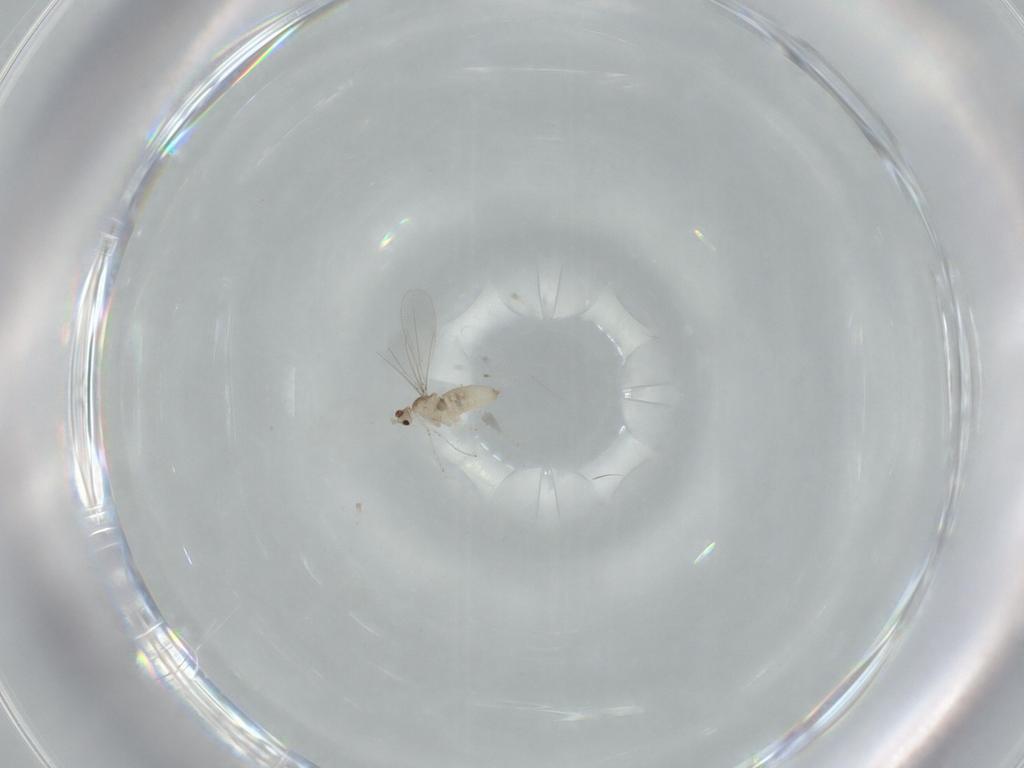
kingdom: Animalia
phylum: Arthropoda
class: Insecta
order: Diptera
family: Cecidomyiidae
